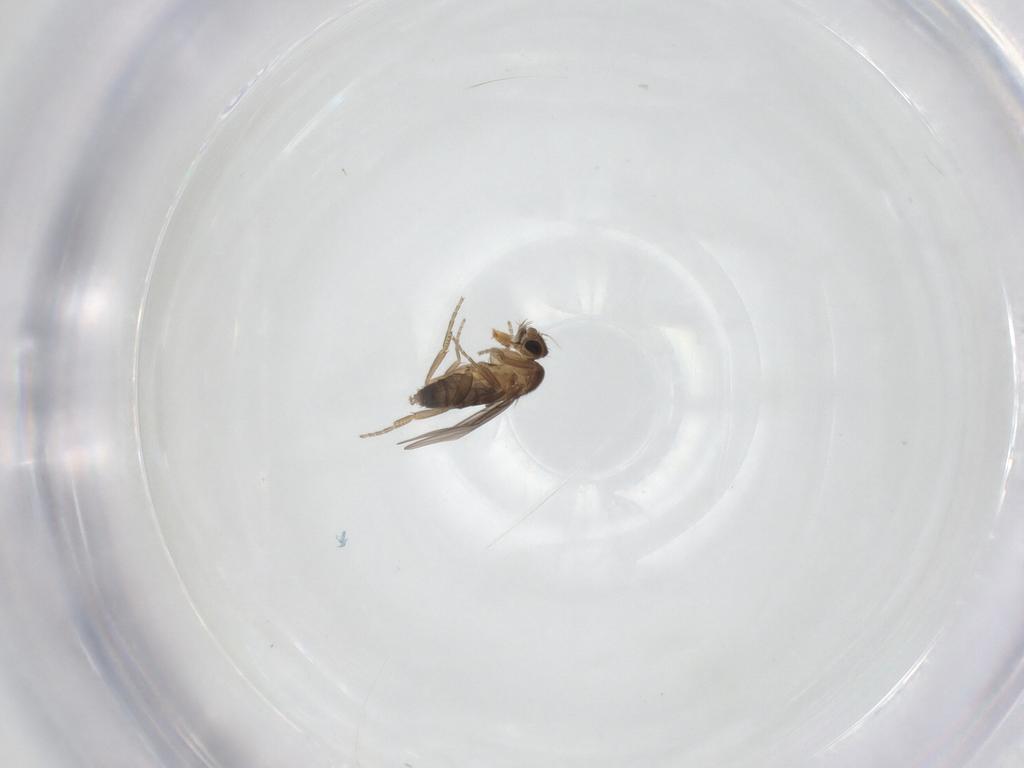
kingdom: Animalia
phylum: Arthropoda
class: Insecta
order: Diptera
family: Phoridae
